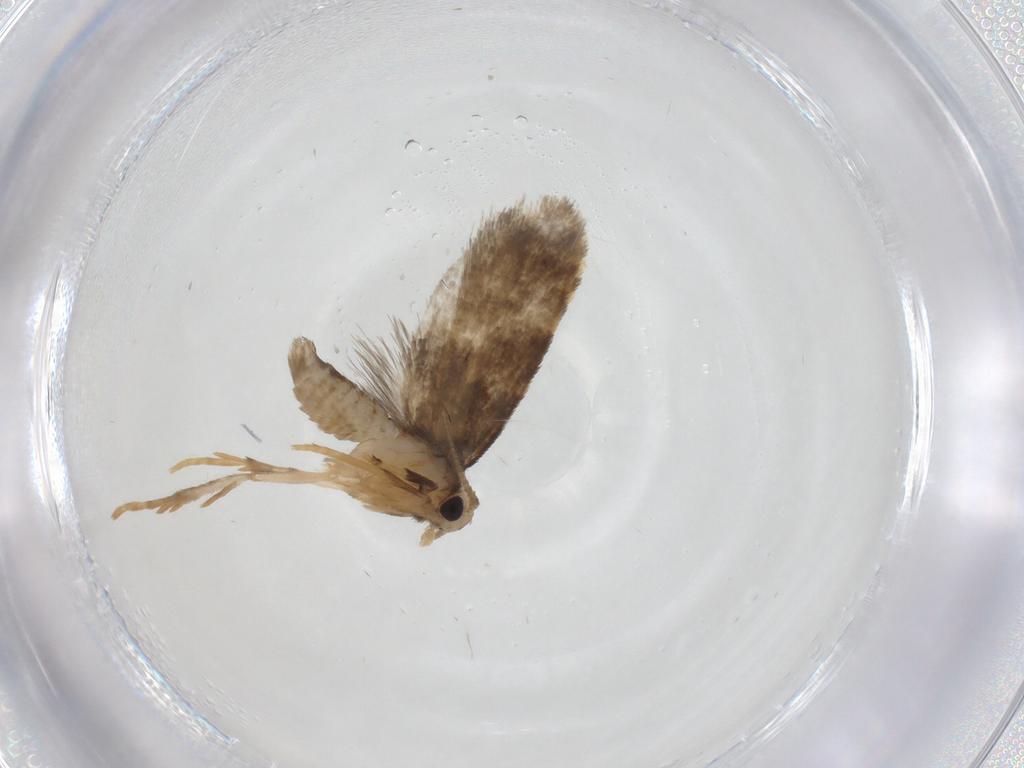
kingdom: Animalia
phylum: Arthropoda
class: Insecta
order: Lepidoptera
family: Psychidae
